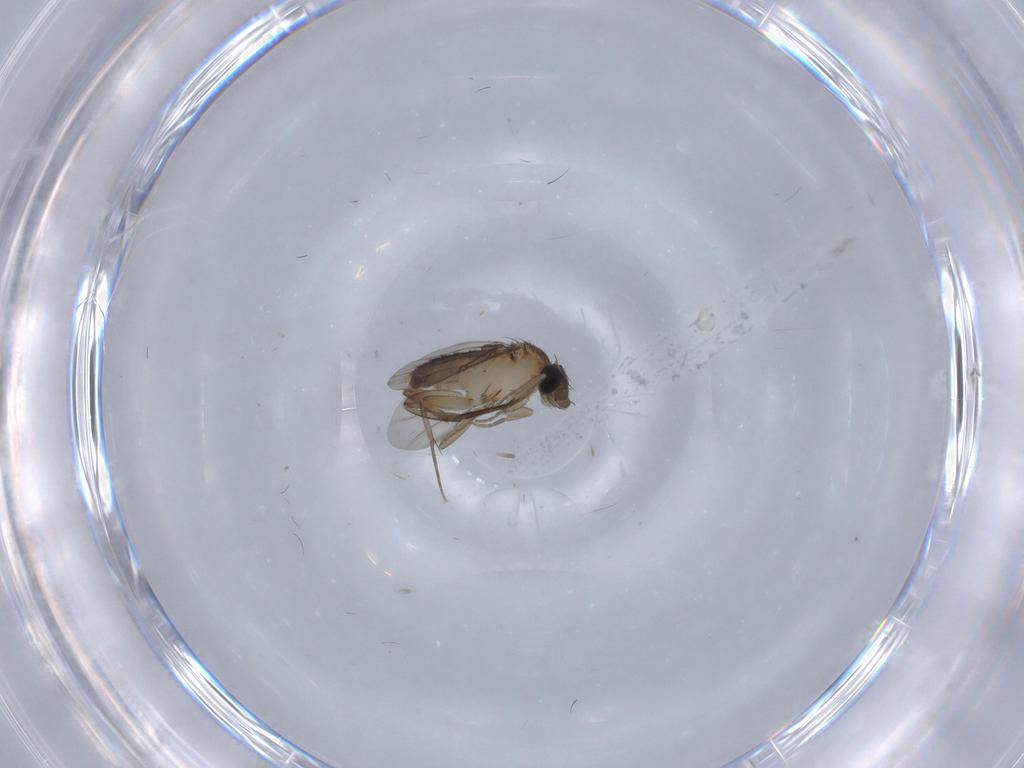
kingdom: Animalia
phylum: Arthropoda
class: Insecta
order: Diptera
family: Phoridae
